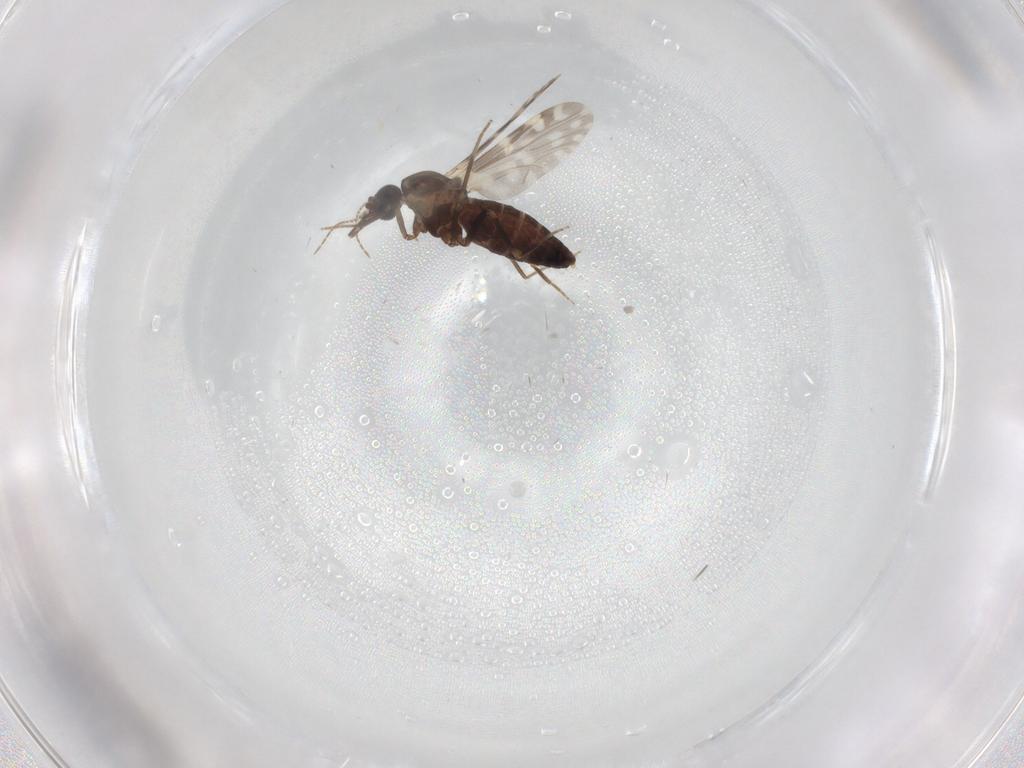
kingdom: Animalia
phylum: Arthropoda
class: Insecta
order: Diptera
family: Ceratopogonidae
